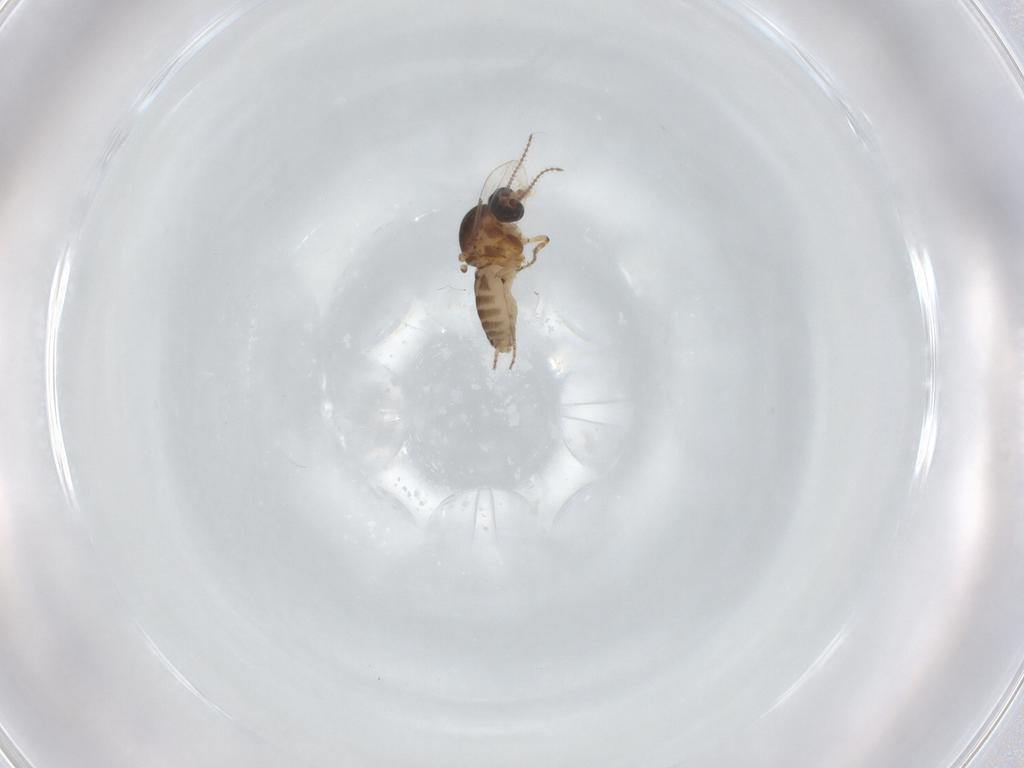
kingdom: Animalia
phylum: Arthropoda
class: Insecta
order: Diptera
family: Ceratopogonidae
